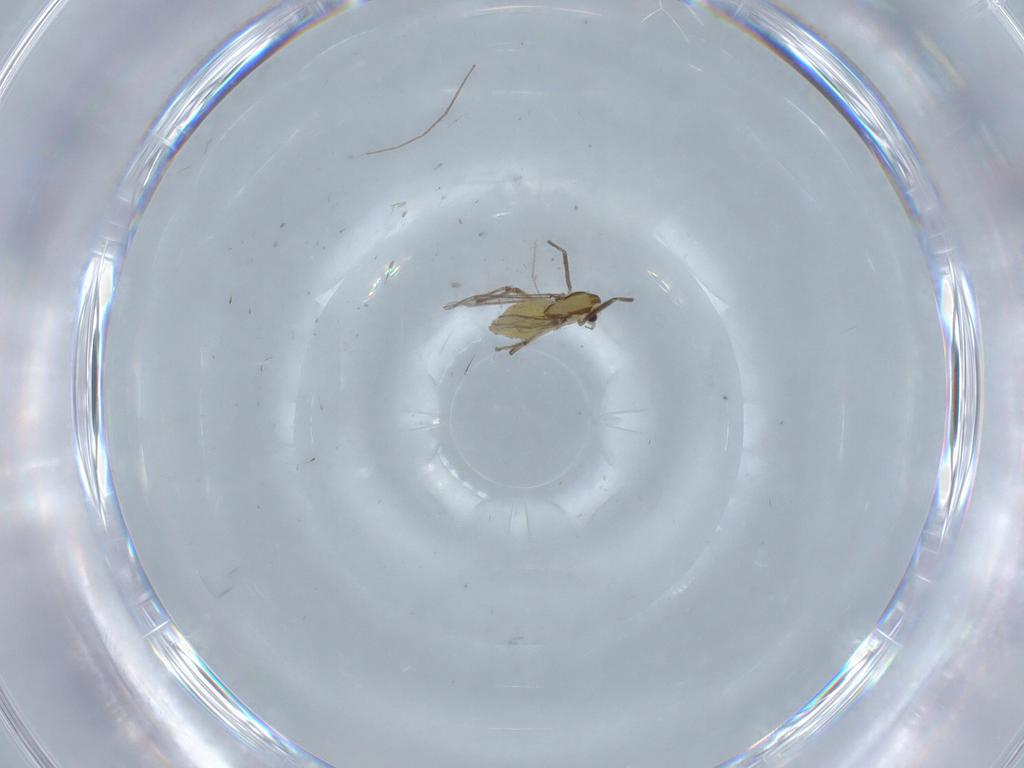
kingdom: Animalia
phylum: Arthropoda
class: Insecta
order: Diptera
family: Chironomidae
